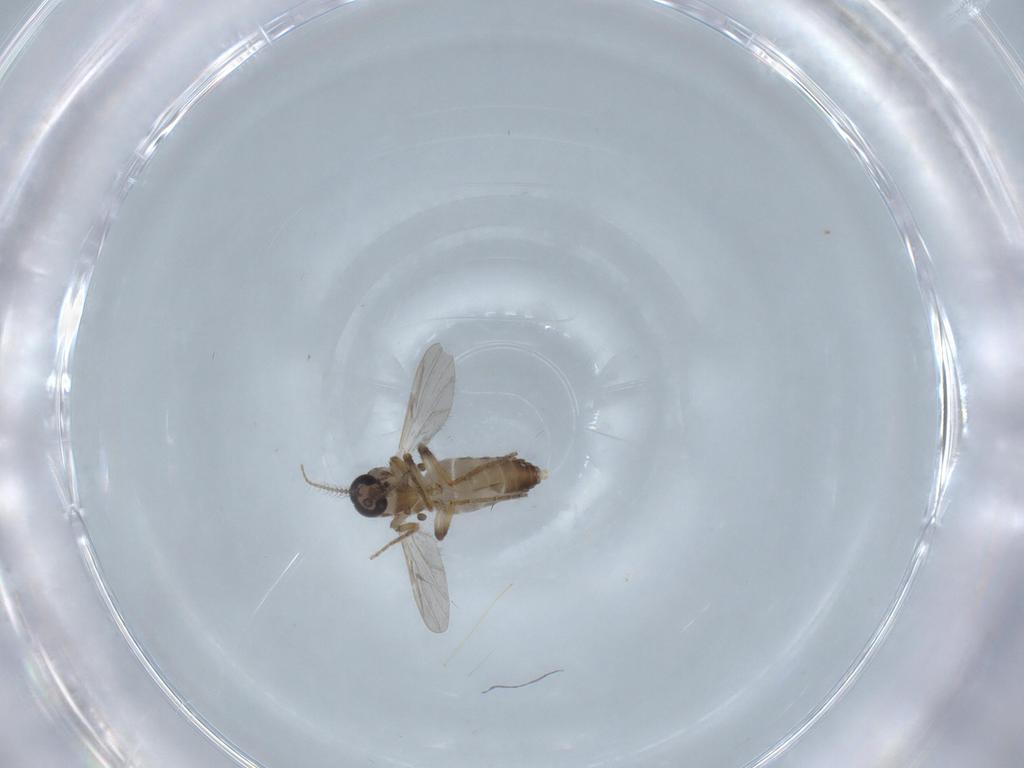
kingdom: Animalia
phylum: Arthropoda
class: Insecta
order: Diptera
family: Ceratopogonidae
